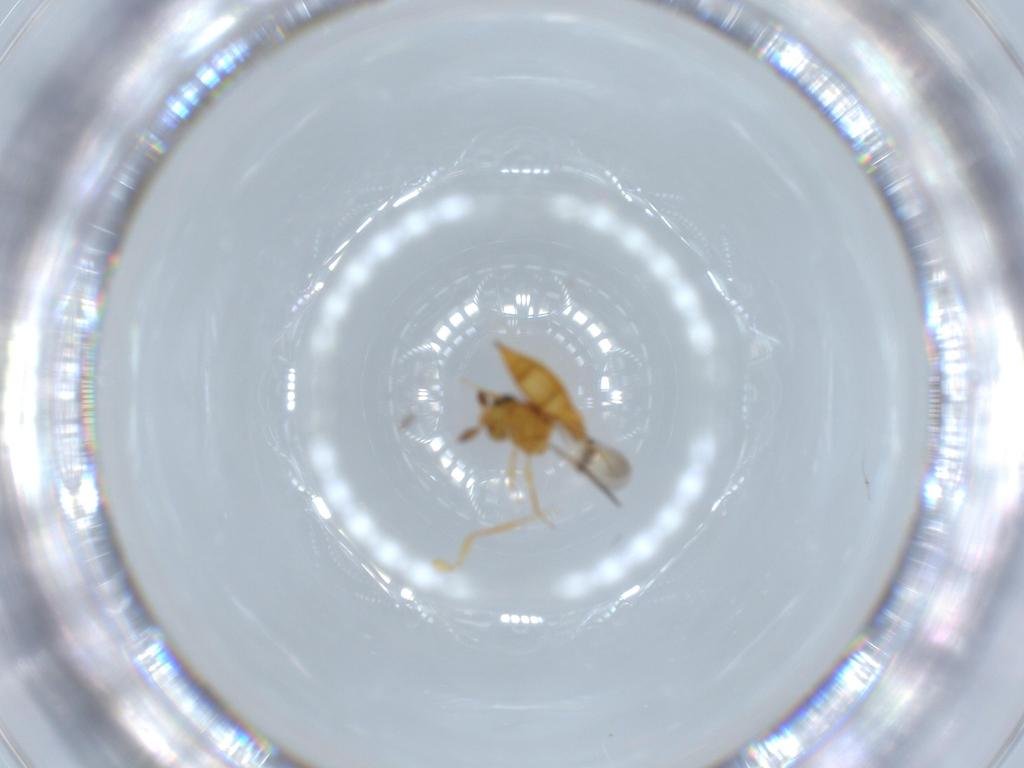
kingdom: Animalia
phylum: Arthropoda
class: Insecta
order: Hymenoptera
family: Scelionidae
